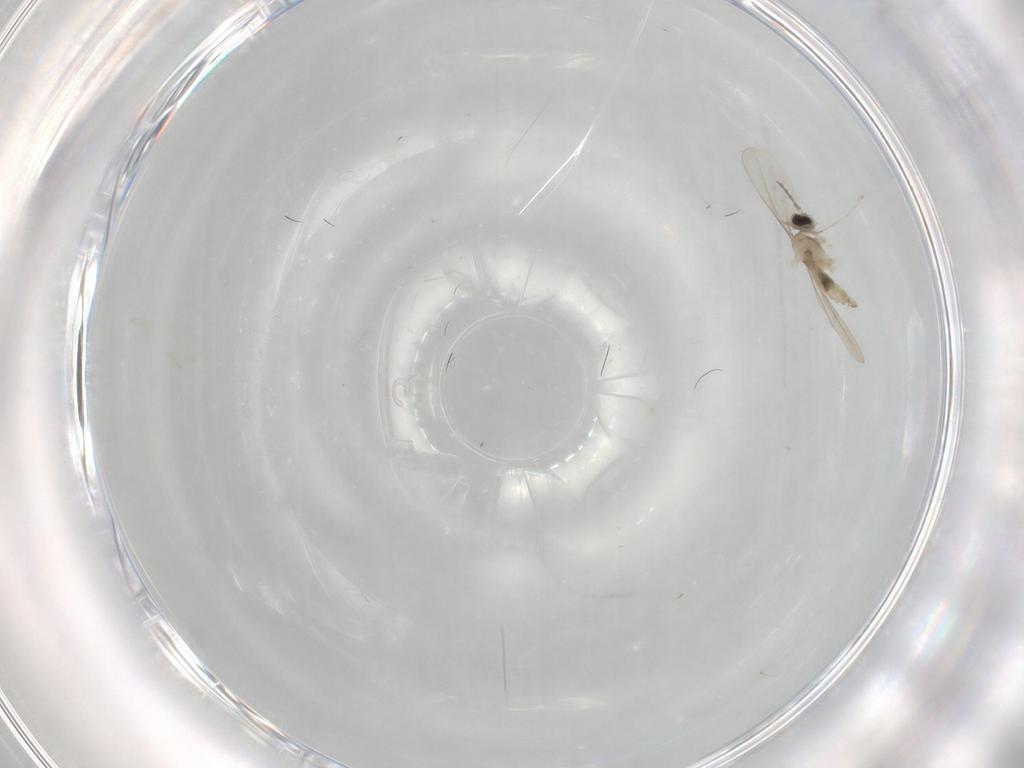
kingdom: Animalia
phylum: Arthropoda
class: Insecta
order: Diptera
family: Cecidomyiidae
